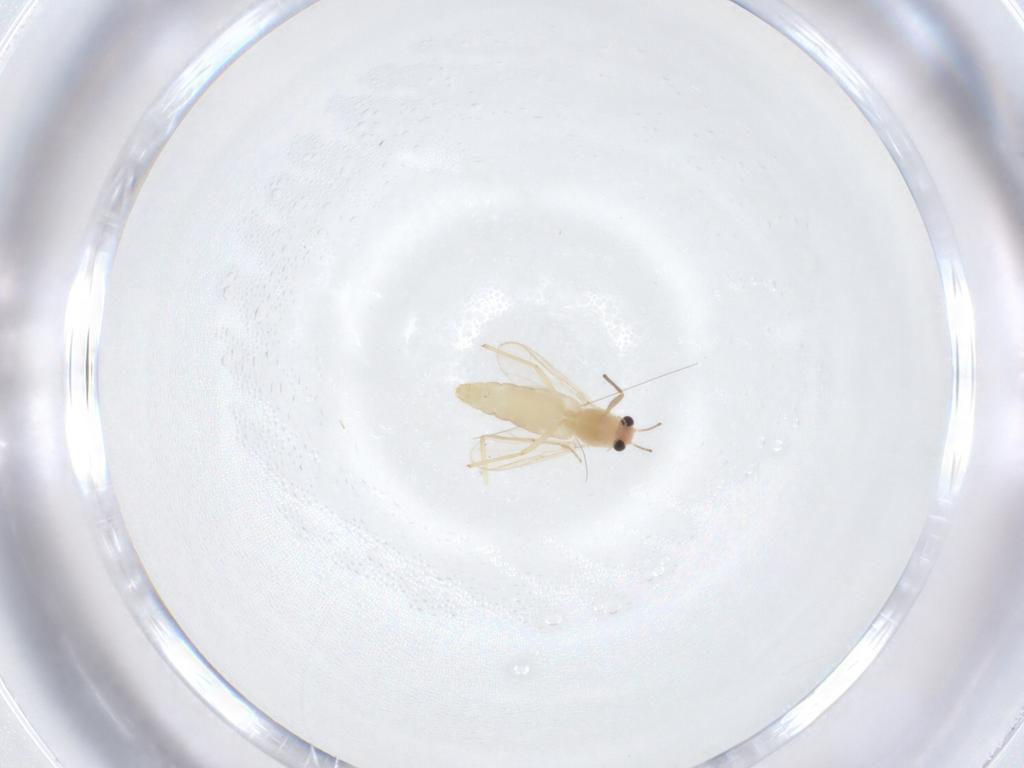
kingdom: Animalia
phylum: Arthropoda
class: Insecta
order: Diptera
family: Chironomidae
